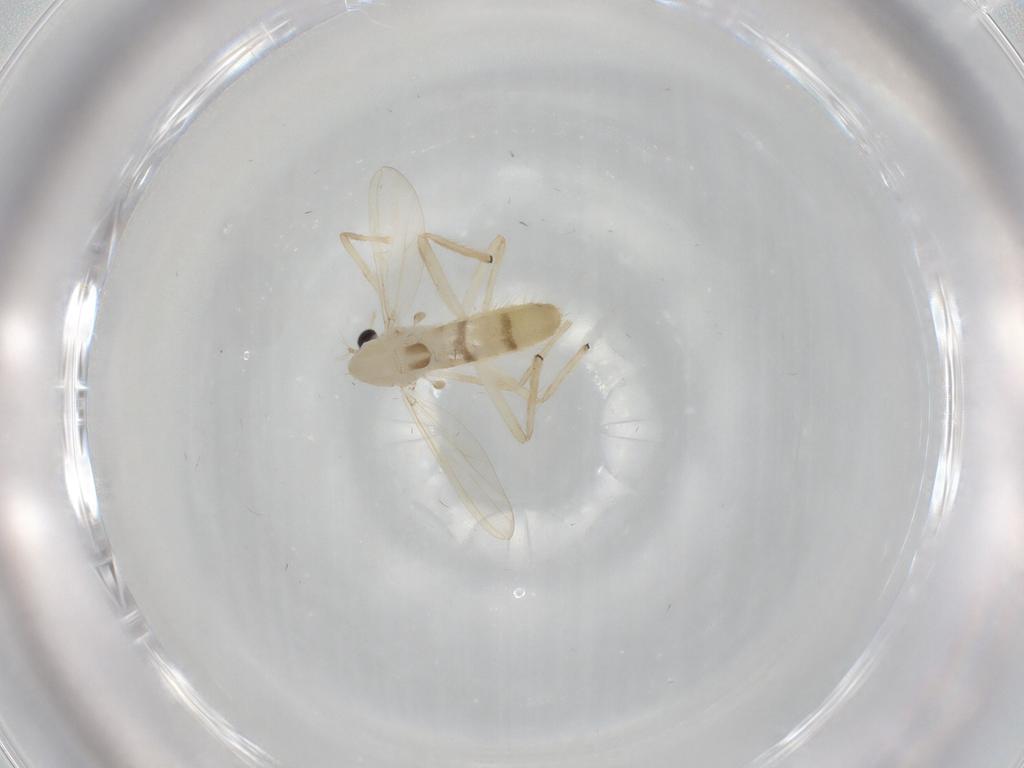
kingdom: Animalia
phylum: Arthropoda
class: Insecta
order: Diptera
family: Chironomidae
